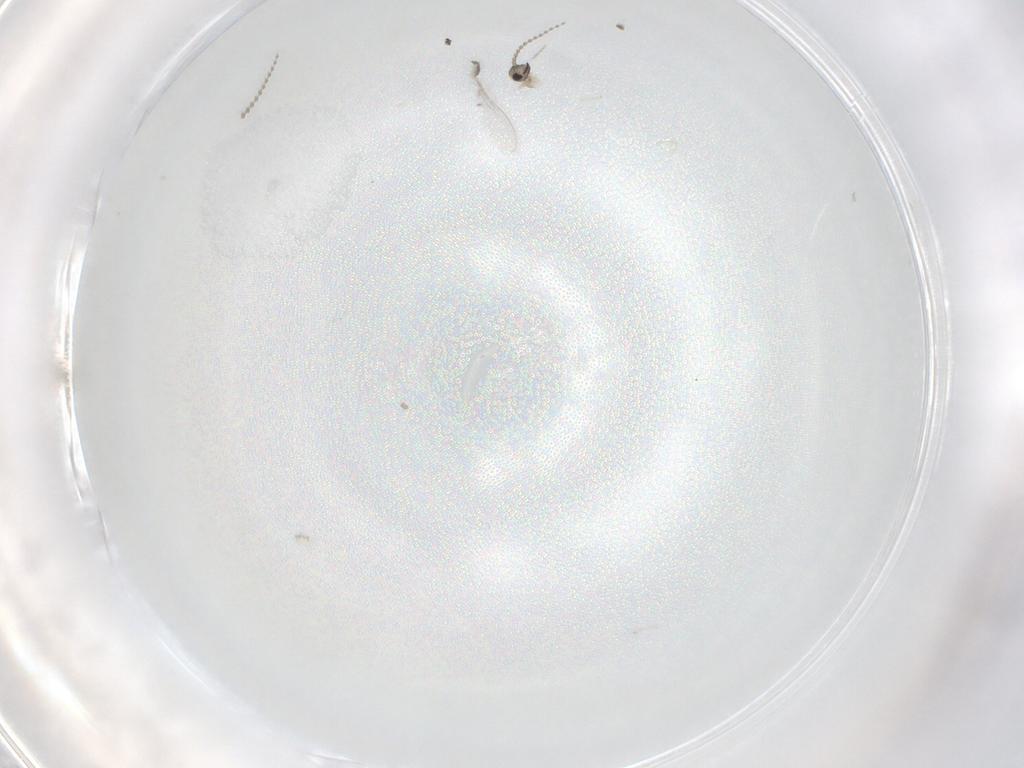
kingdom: Animalia
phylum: Arthropoda
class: Insecta
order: Diptera
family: Cecidomyiidae
